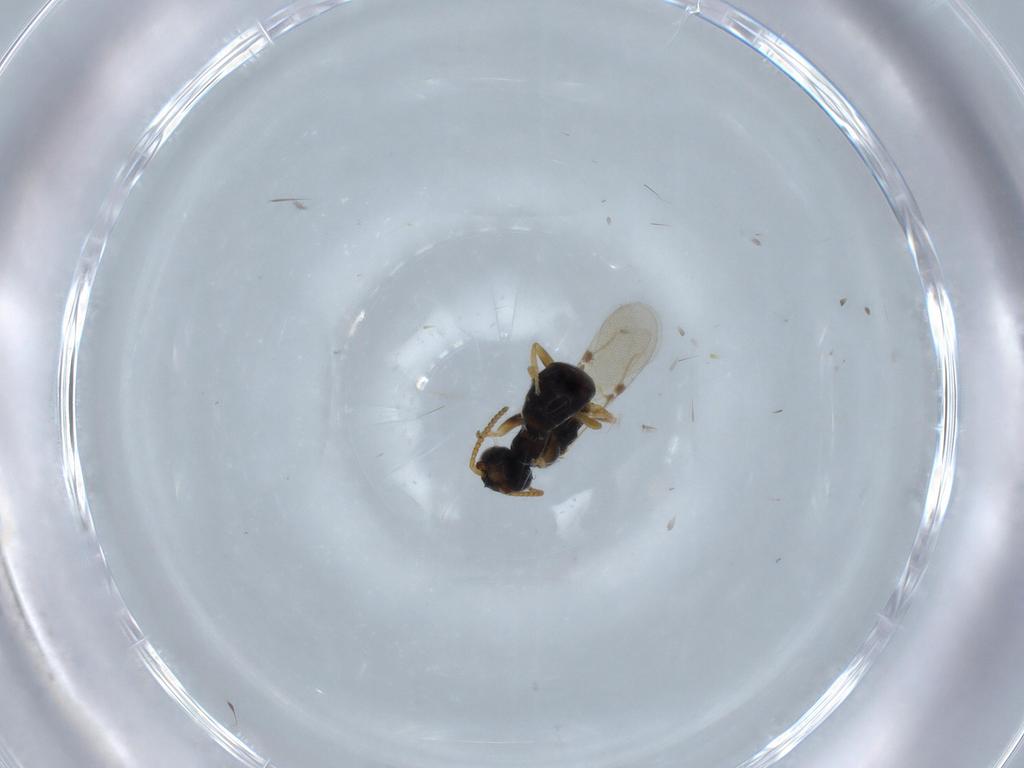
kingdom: Animalia
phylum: Arthropoda
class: Insecta
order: Hymenoptera
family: Bethylidae
